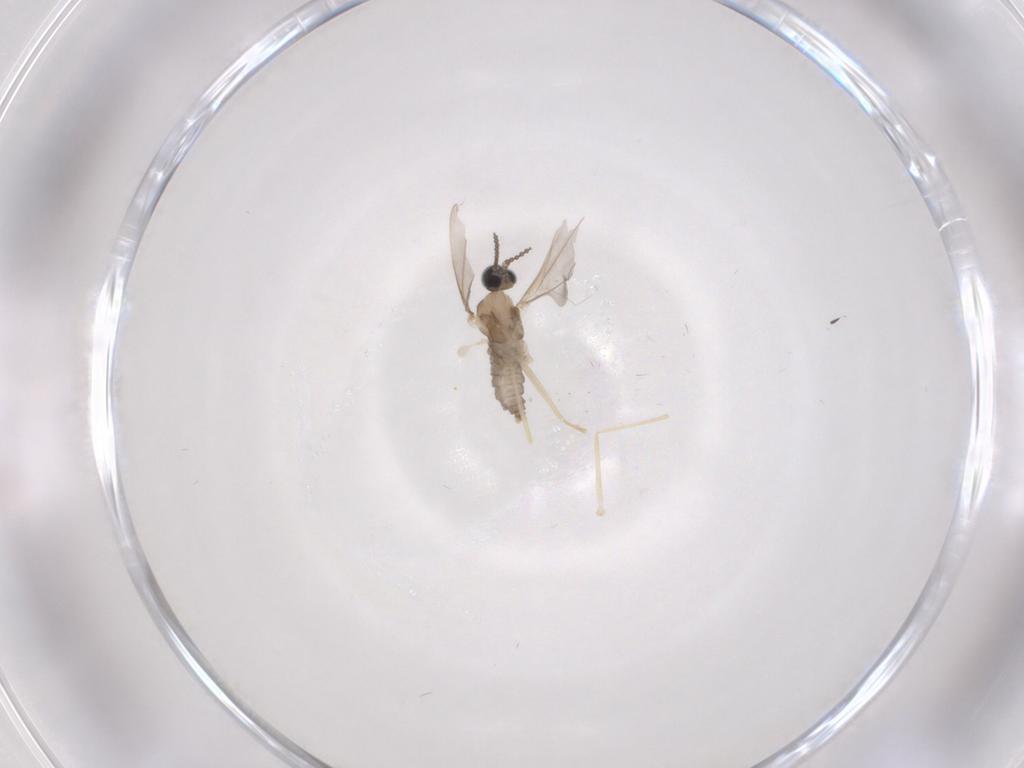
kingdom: Animalia
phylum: Arthropoda
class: Insecta
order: Diptera
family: Cecidomyiidae
